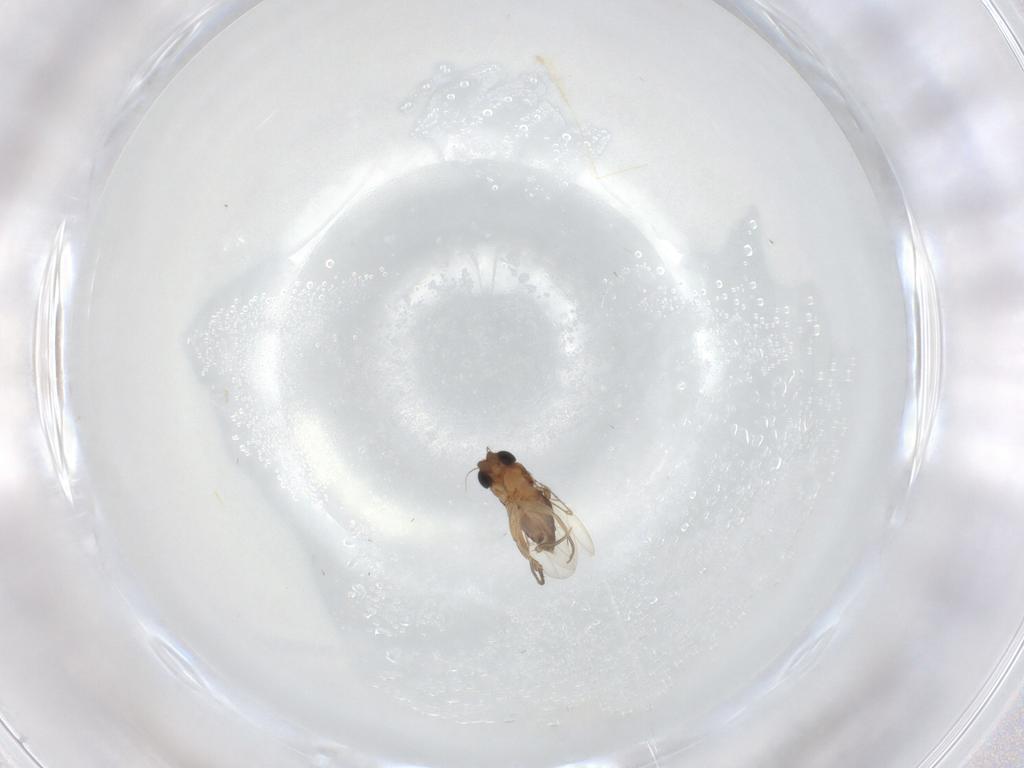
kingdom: Animalia
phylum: Arthropoda
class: Insecta
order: Diptera
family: Phoridae
